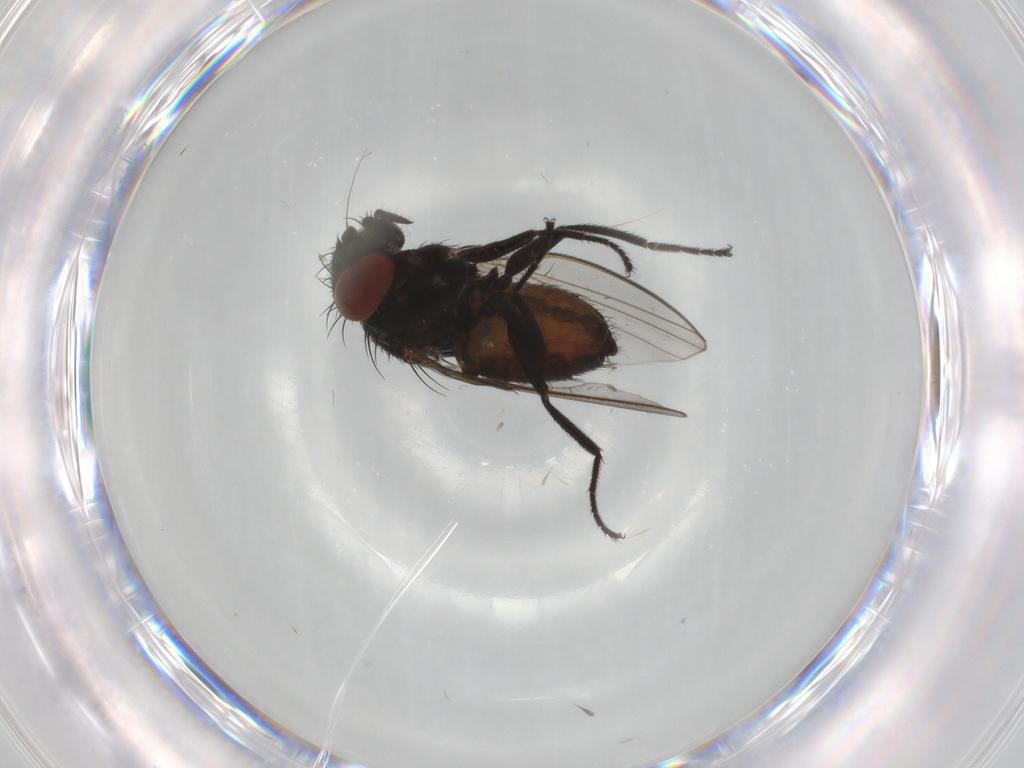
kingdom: Animalia
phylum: Arthropoda
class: Insecta
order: Diptera
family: Milichiidae
